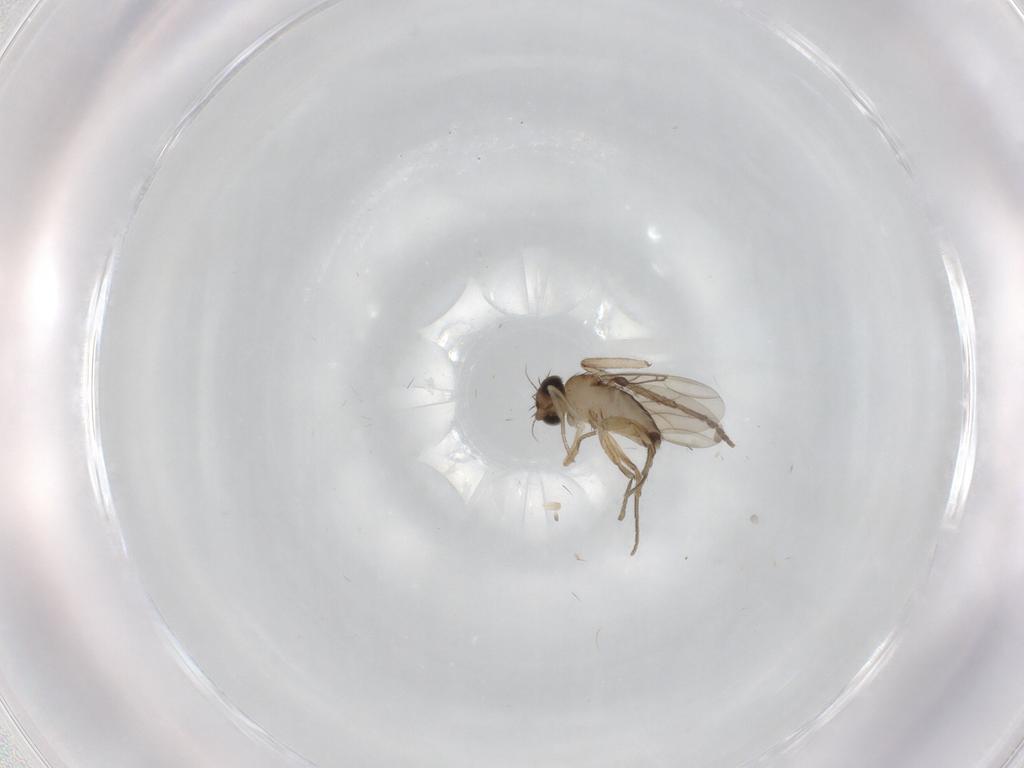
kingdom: Animalia
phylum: Arthropoda
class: Insecta
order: Diptera
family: Phoridae
